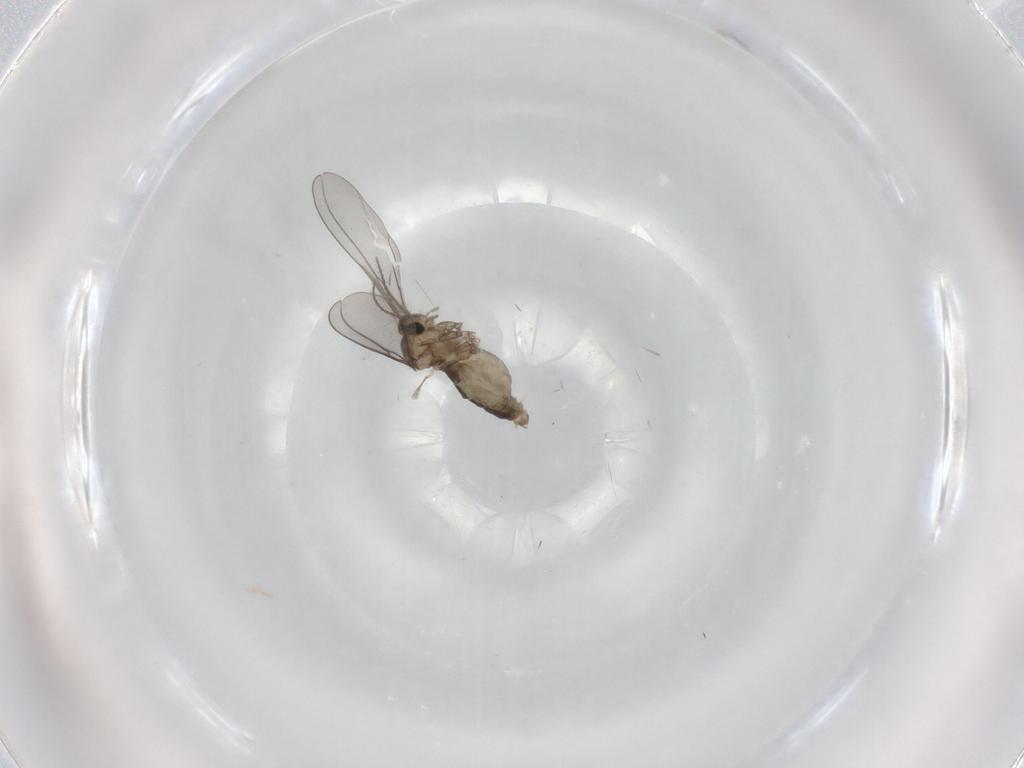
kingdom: Animalia
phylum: Arthropoda
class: Insecta
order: Diptera
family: Cecidomyiidae
